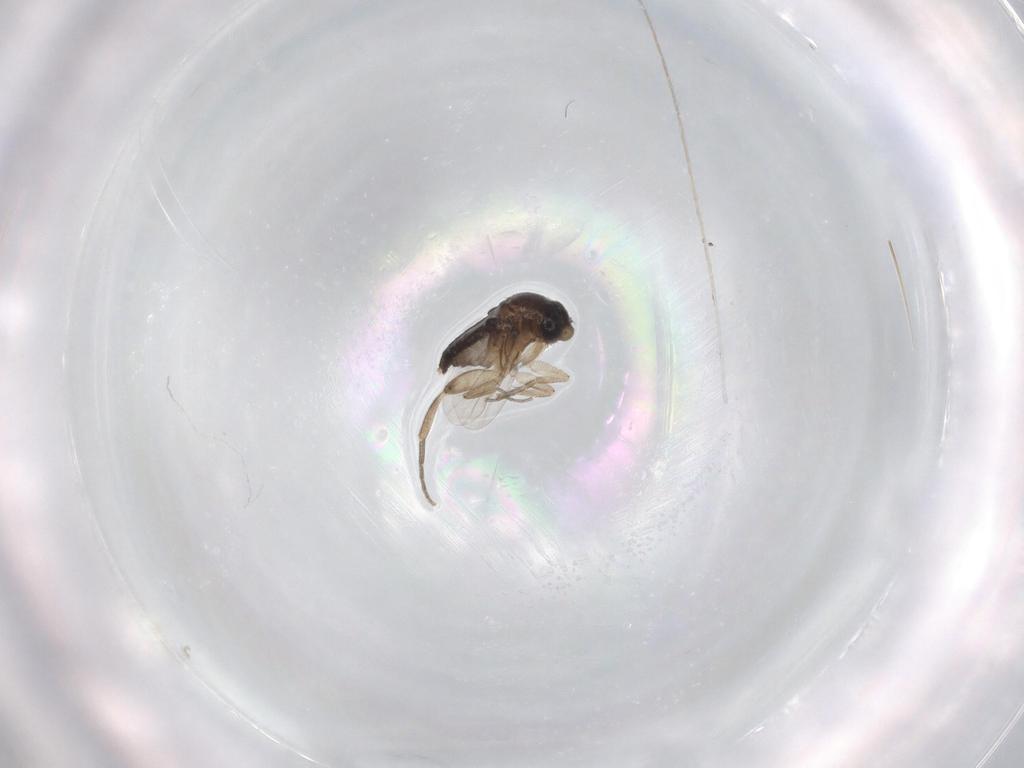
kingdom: Animalia
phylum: Arthropoda
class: Insecta
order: Diptera
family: Phoridae
